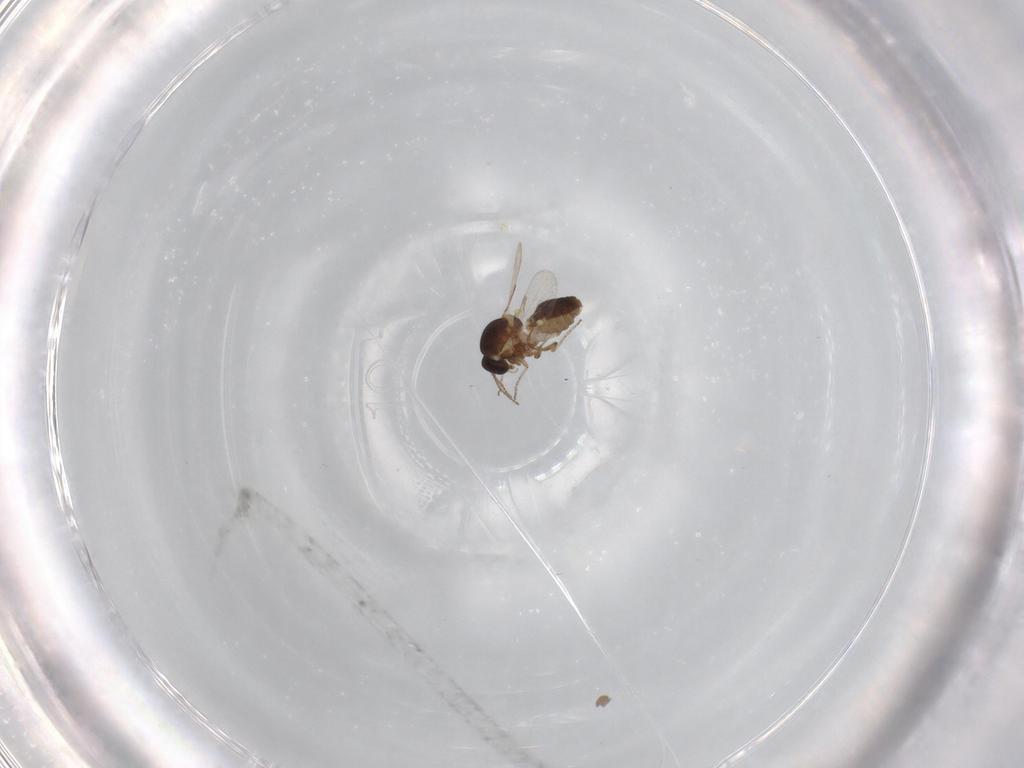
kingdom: Animalia
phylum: Arthropoda
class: Insecta
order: Diptera
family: Ceratopogonidae
